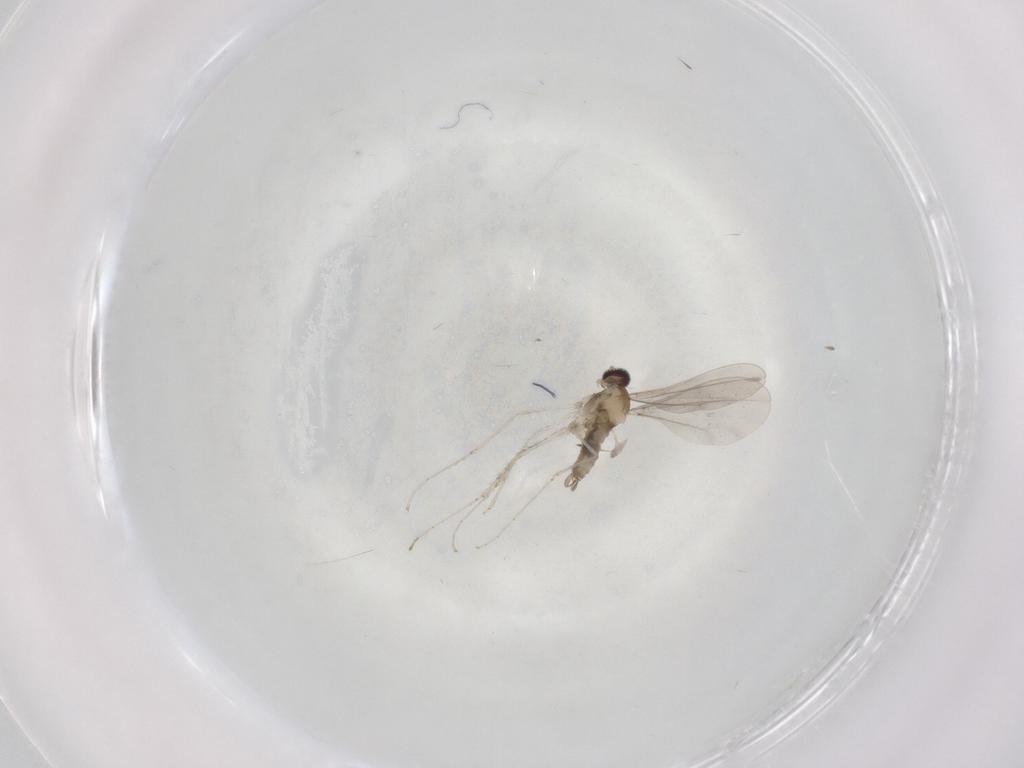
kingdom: Animalia
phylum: Arthropoda
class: Insecta
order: Diptera
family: Cecidomyiidae
